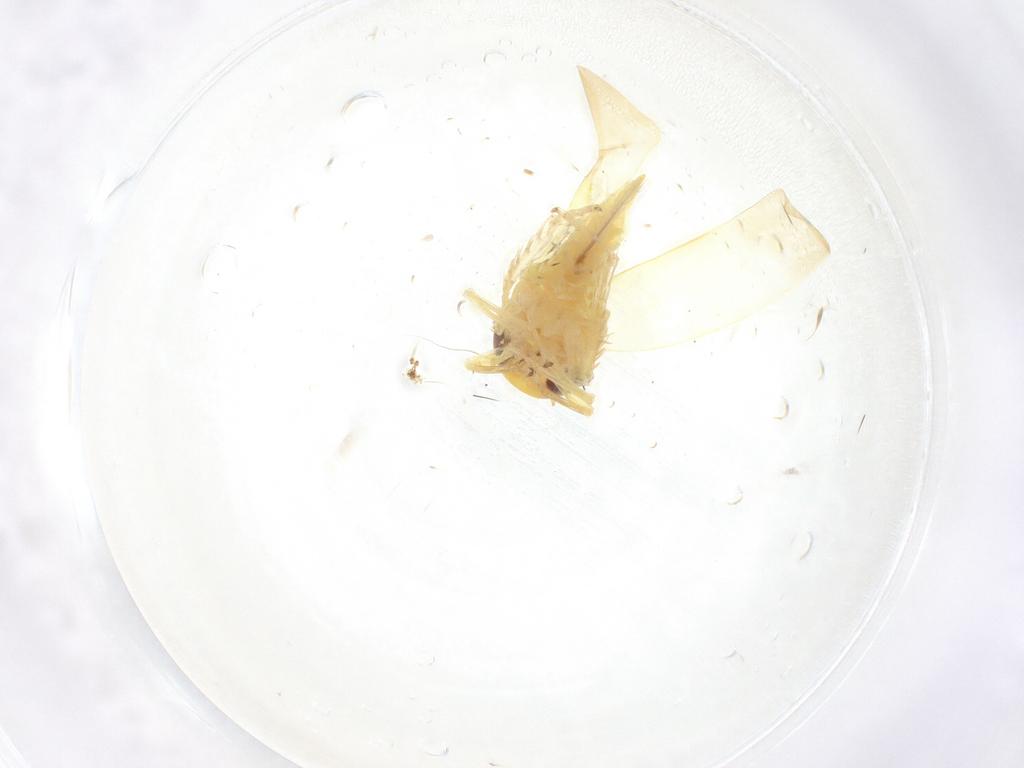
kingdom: Animalia
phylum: Arthropoda
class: Insecta
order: Hemiptera
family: Cicadellidae
